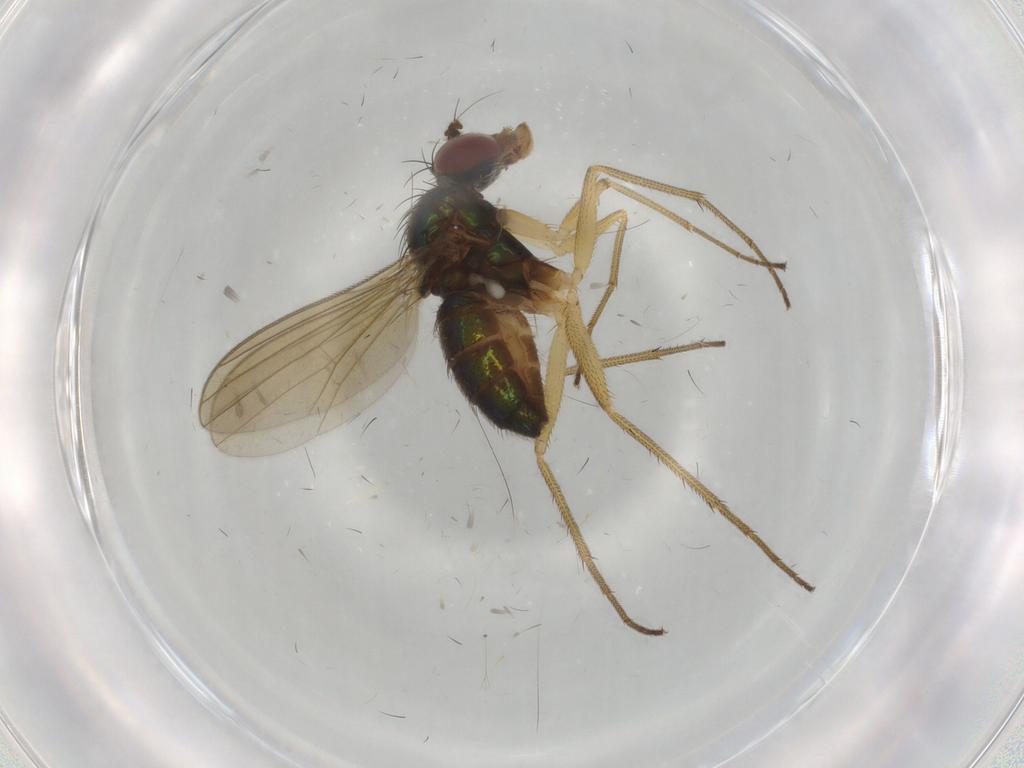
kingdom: Animalia
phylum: Arthropoda
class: Insecta
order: Diptera
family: Dolichopodidae
